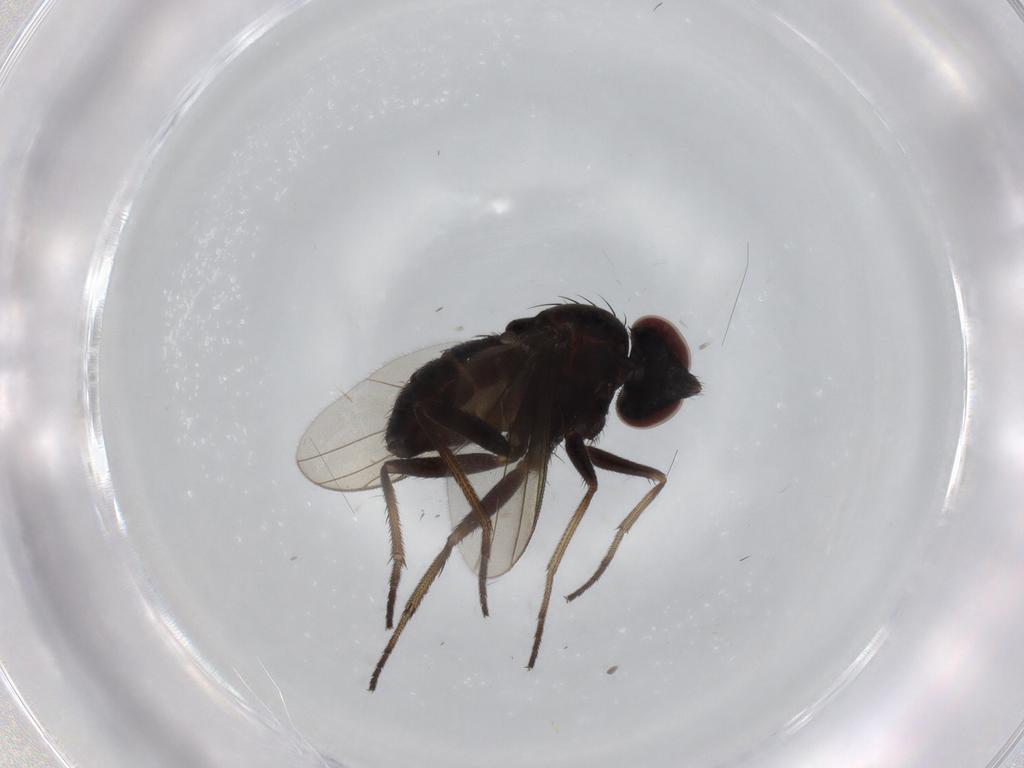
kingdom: Animalia
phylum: Arthropoda
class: Insecta
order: Diptera
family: Dolichopodidae
